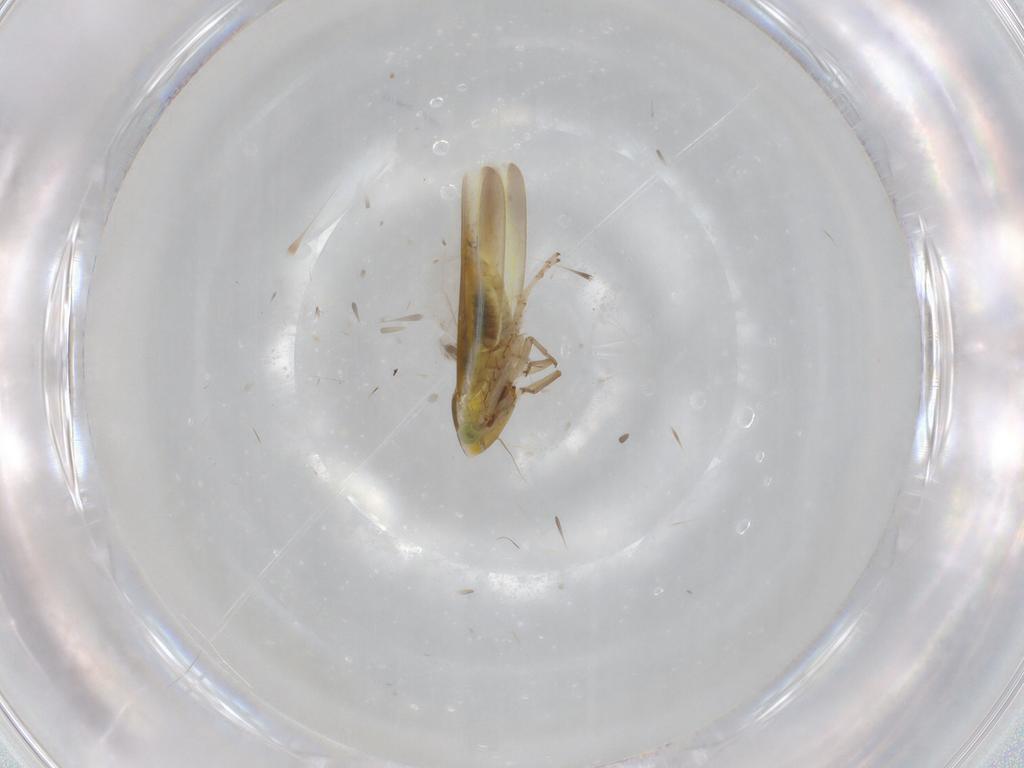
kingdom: Animalia
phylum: Arthropoda
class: Insecta
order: Hemiptera
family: Cicadellidae
